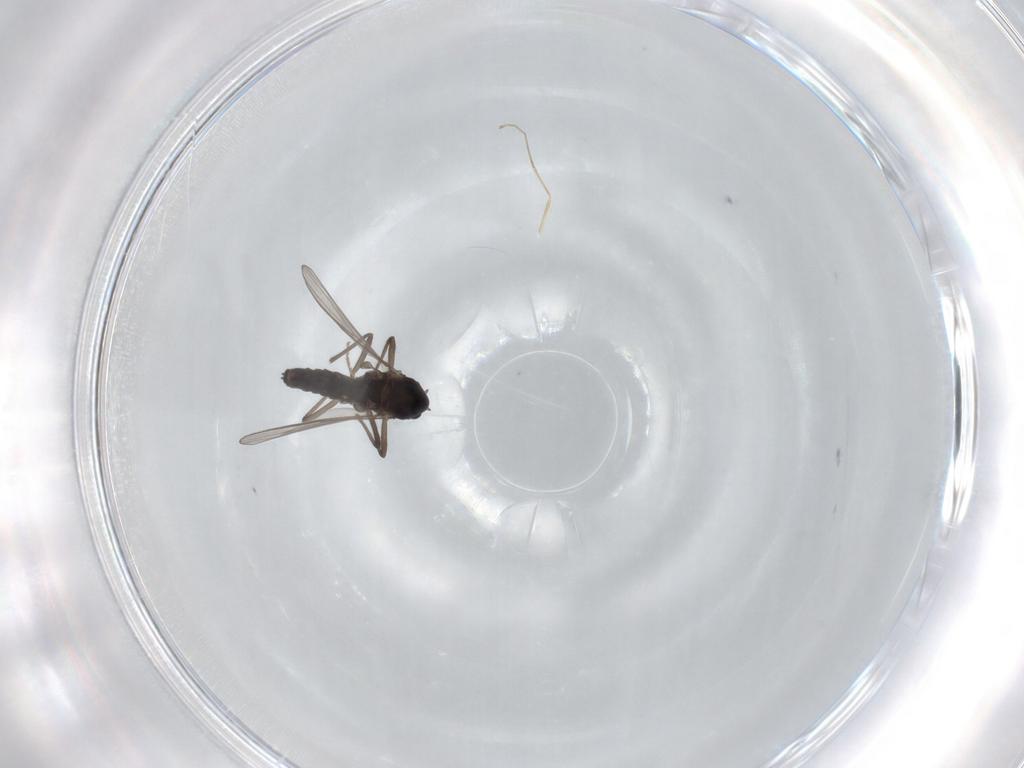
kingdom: Animalia
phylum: Arthropoda
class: Insecta
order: Diptera
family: Chironomidae
